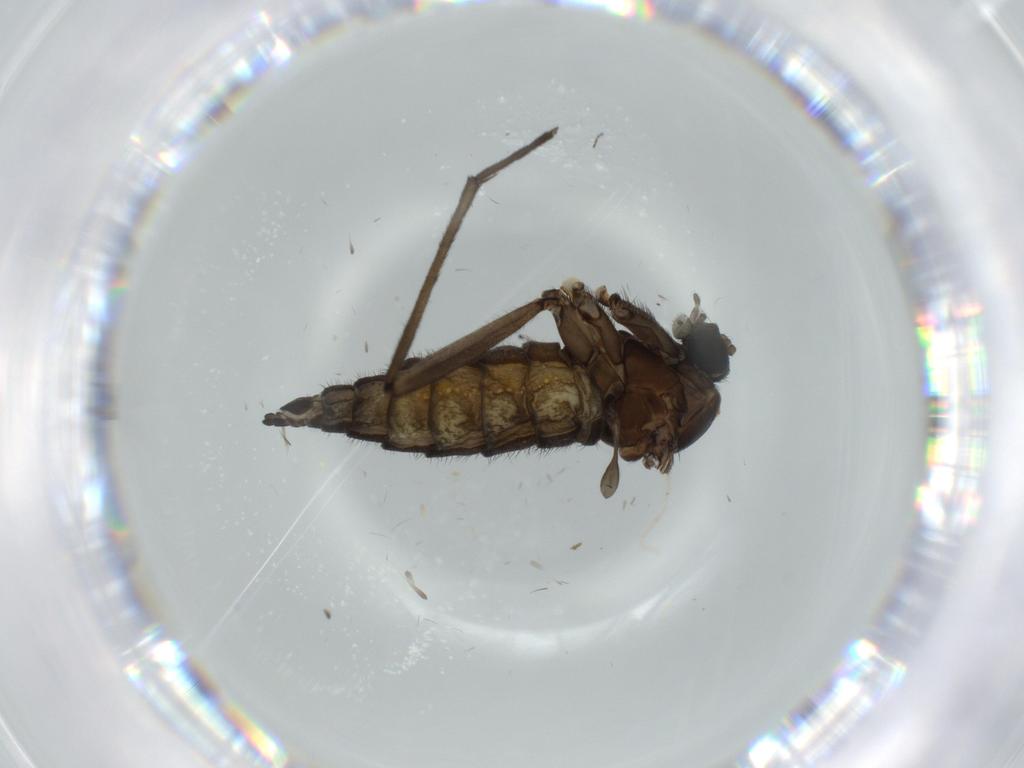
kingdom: Animalia
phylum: Arthropoda
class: Insecta
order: Diptera
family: Sciaridae
